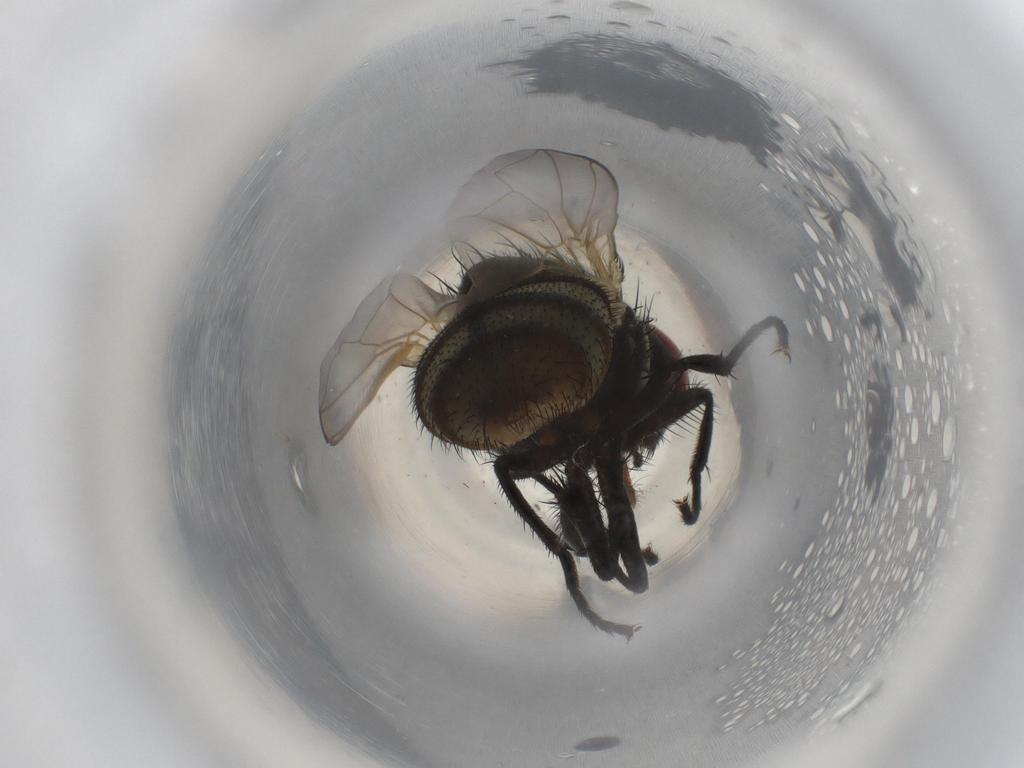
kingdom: Animalia
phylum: Arthropoda
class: Insecta
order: Diptera
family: Muscidae
